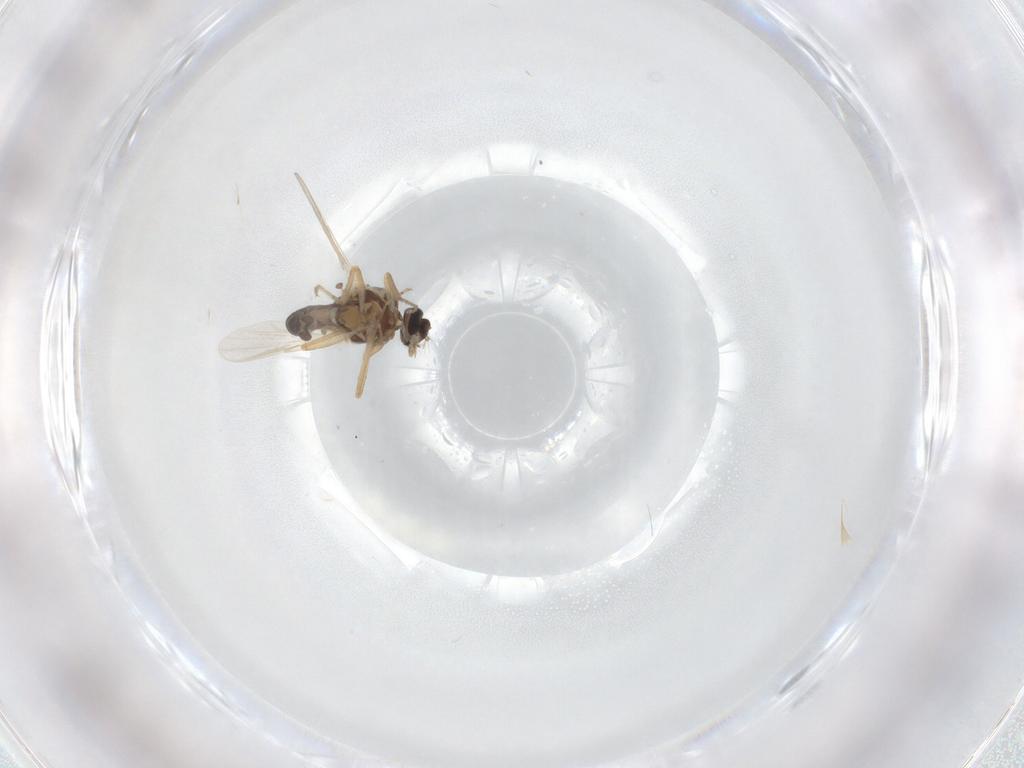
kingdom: Animalia
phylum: Arthropoda
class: Insecta
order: Diptera
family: Ceratopogonidae
